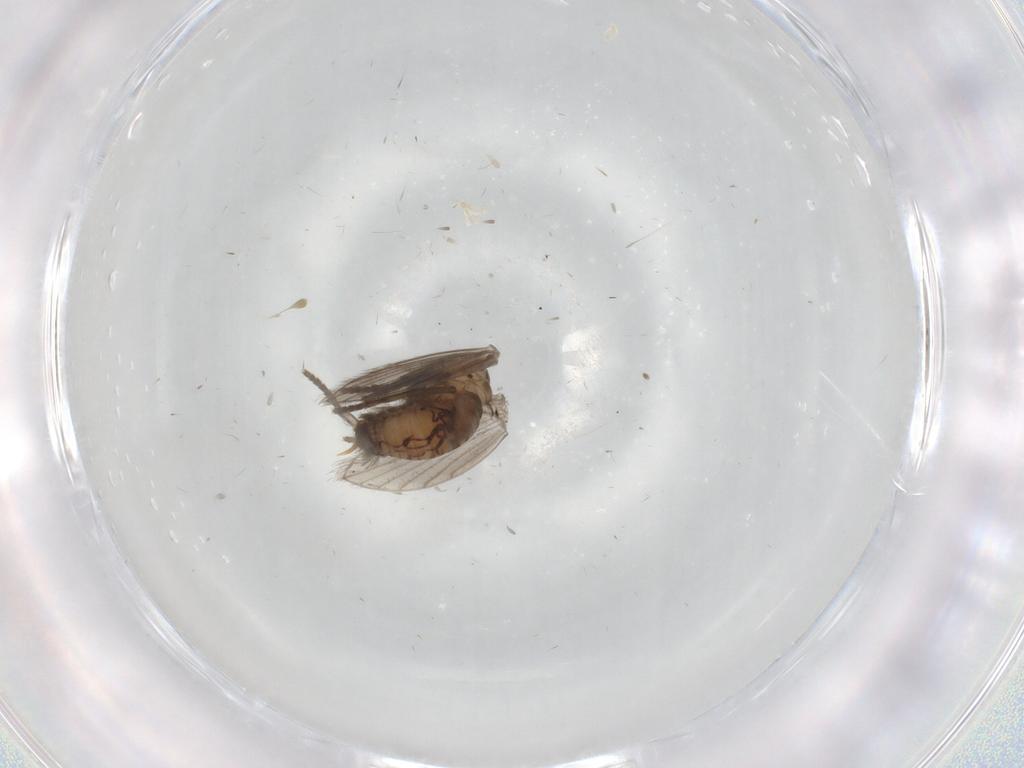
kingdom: Animalia
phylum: Arthropoda
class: Insecta
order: Diptera
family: Psychodidae
